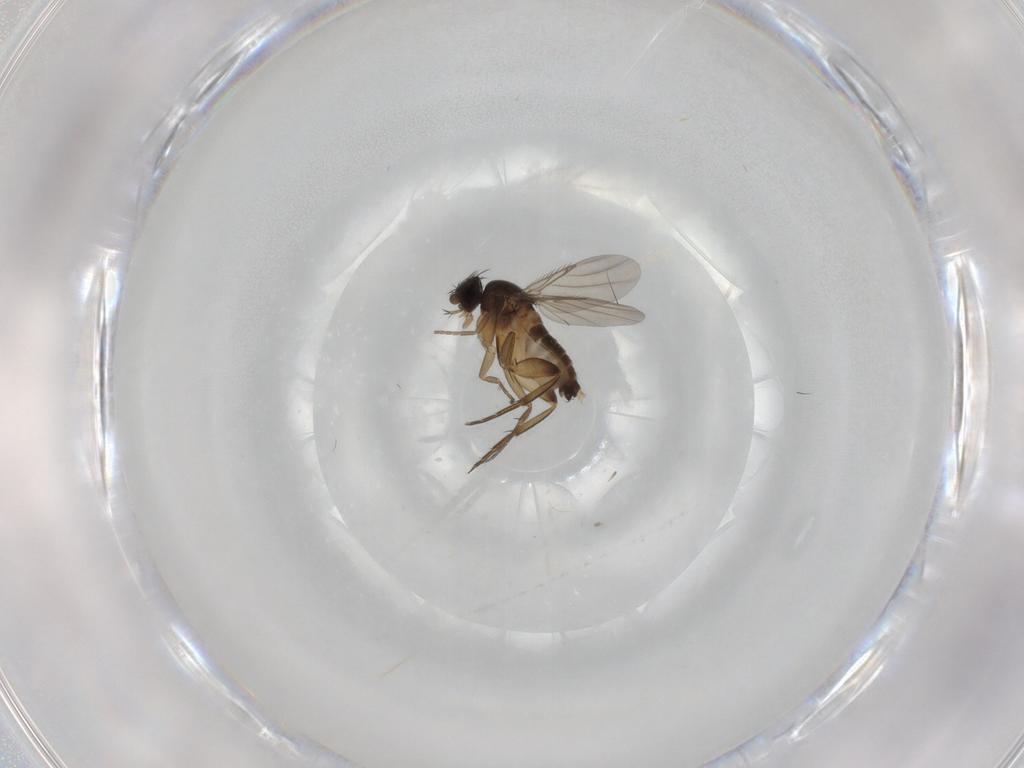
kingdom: Animalia
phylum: Arthropoda
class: Insecta
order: Diptera
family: Phoridae
